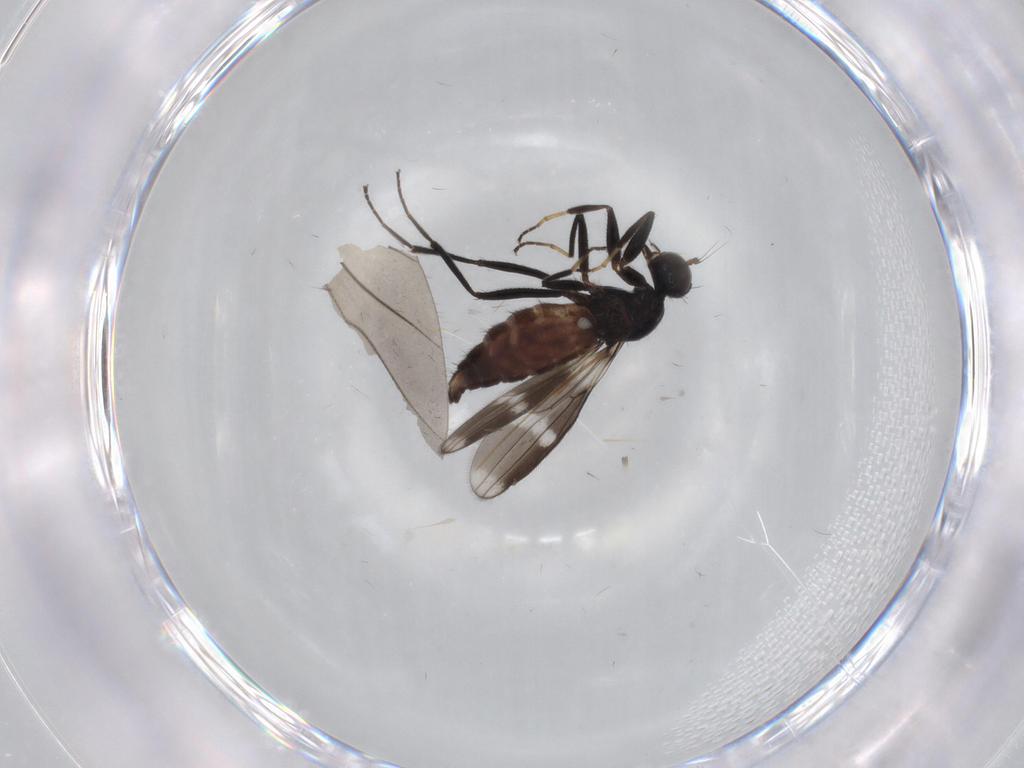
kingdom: Animalia
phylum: Arthropoda
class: Insecta
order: Diptera
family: Hybotidae
